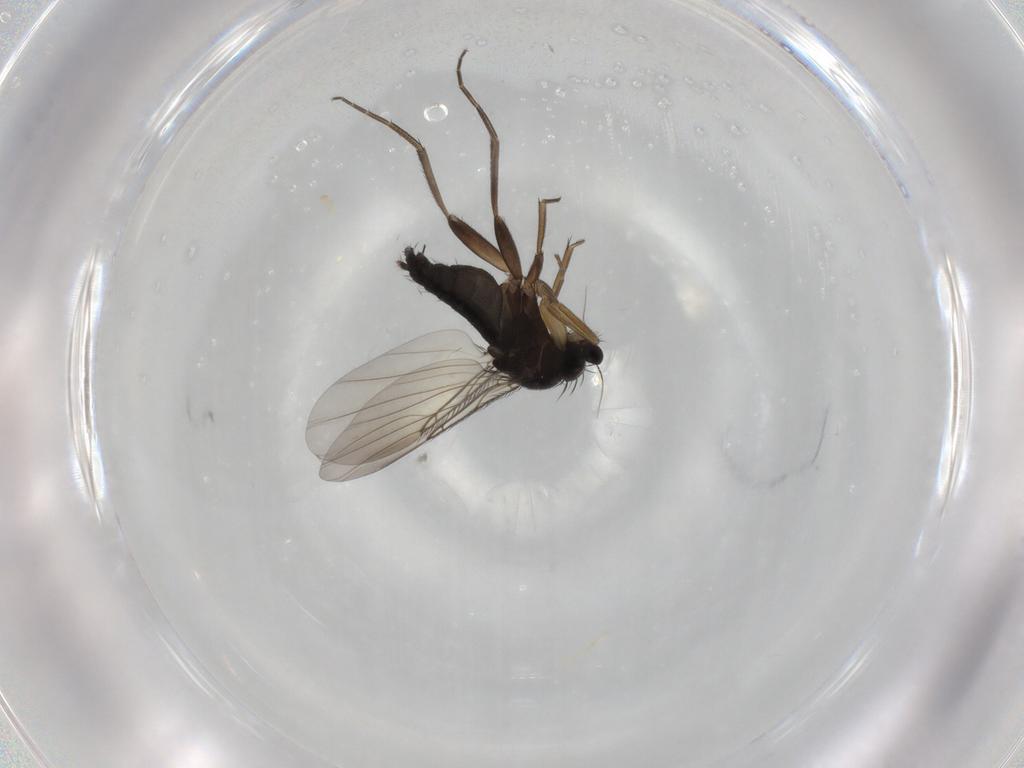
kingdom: Animalia
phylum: Arthropoda
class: Insecta
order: Diptera
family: Phoridae
